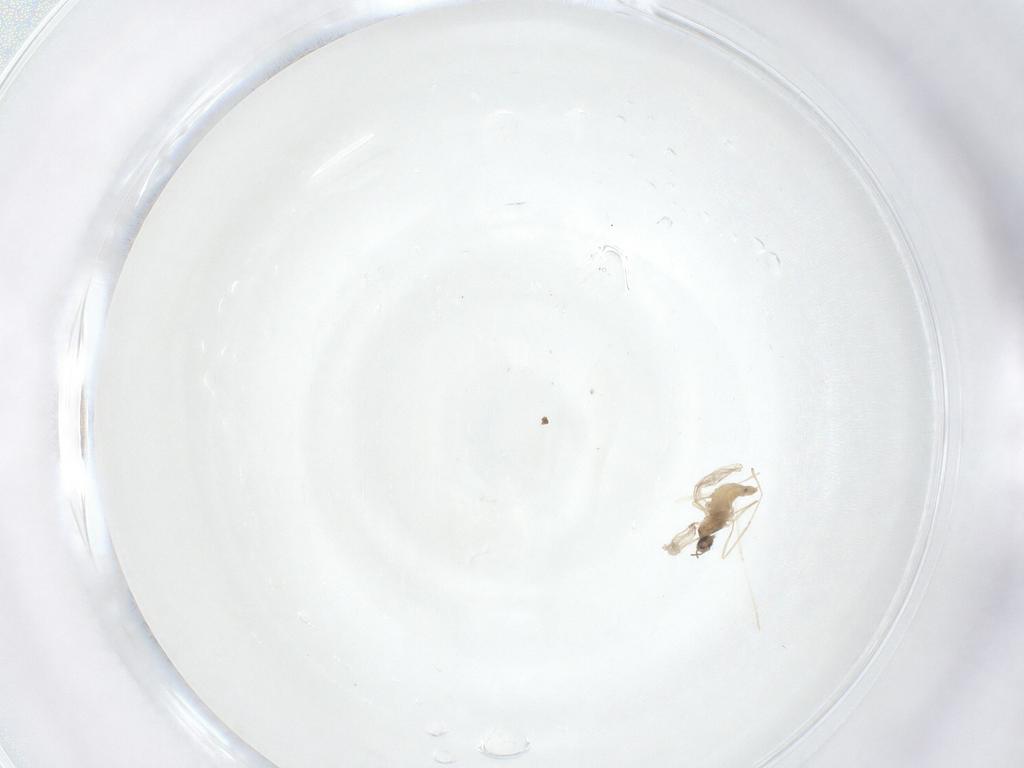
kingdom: Animalia
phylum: Arthropoda
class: Insecta
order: Diptera
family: Cecidomyiidae
